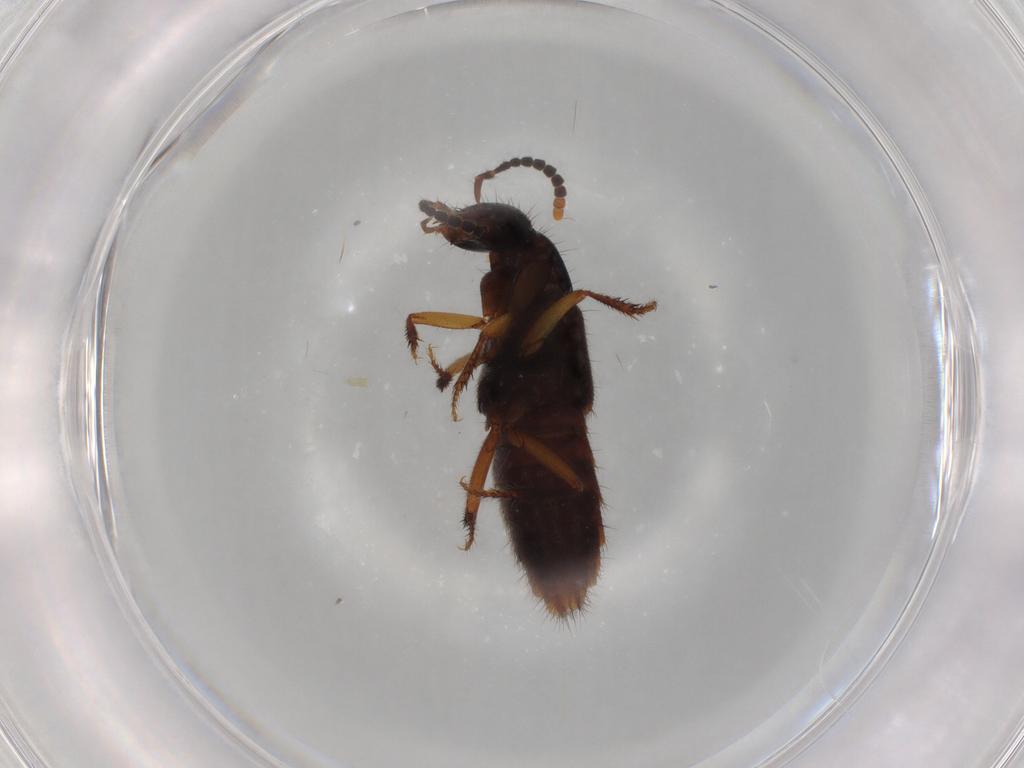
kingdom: Animalia
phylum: Arthropoda
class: Insecta
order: Coleoptera
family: Staphylinidae
